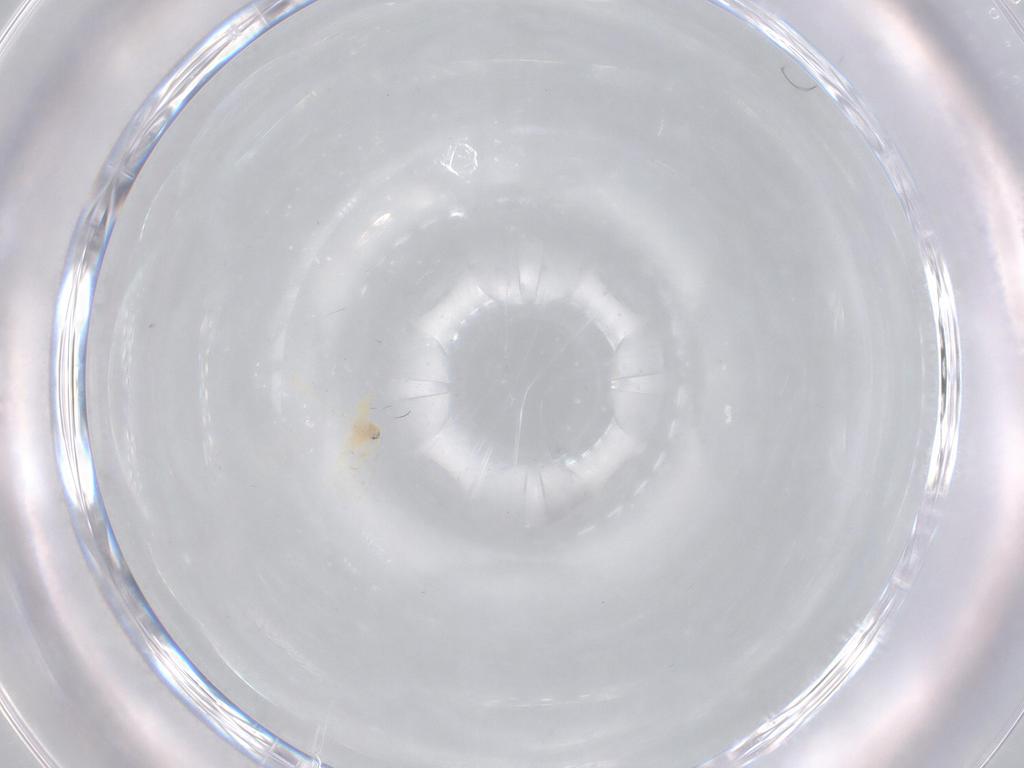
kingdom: Animalia
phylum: Arthropoda
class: Insecta
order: Hemiptera
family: Aleyrodidae
